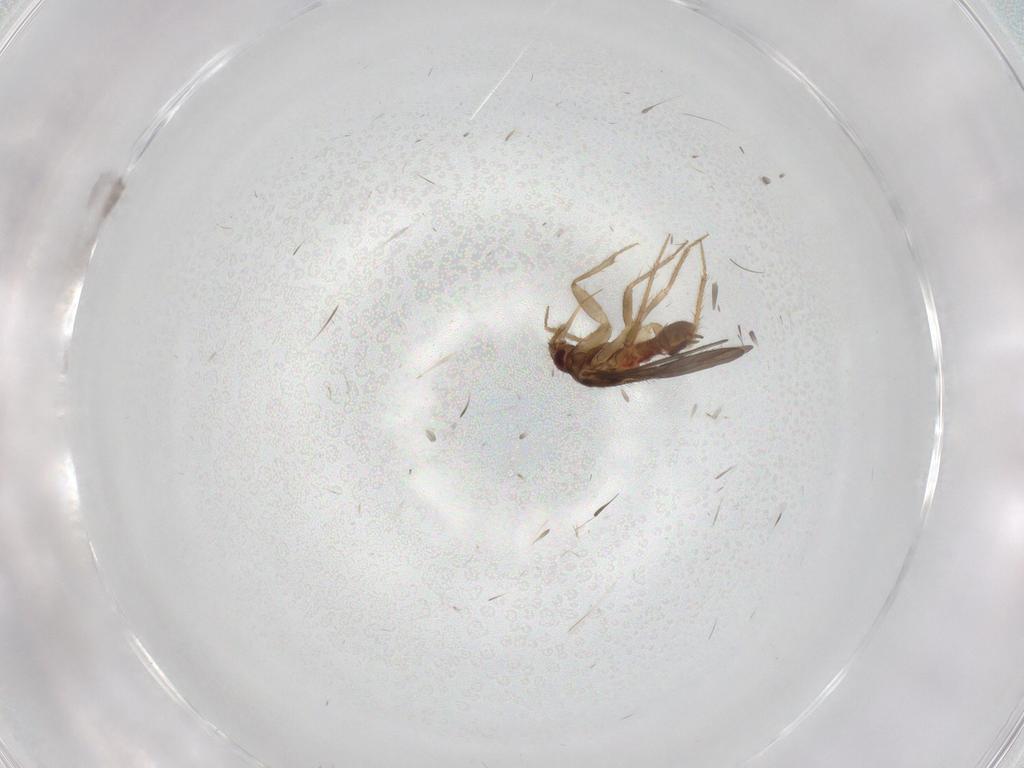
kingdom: Animalia
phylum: Arthropoda
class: Insecta
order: Hemiptera
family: Ceratocombidae
